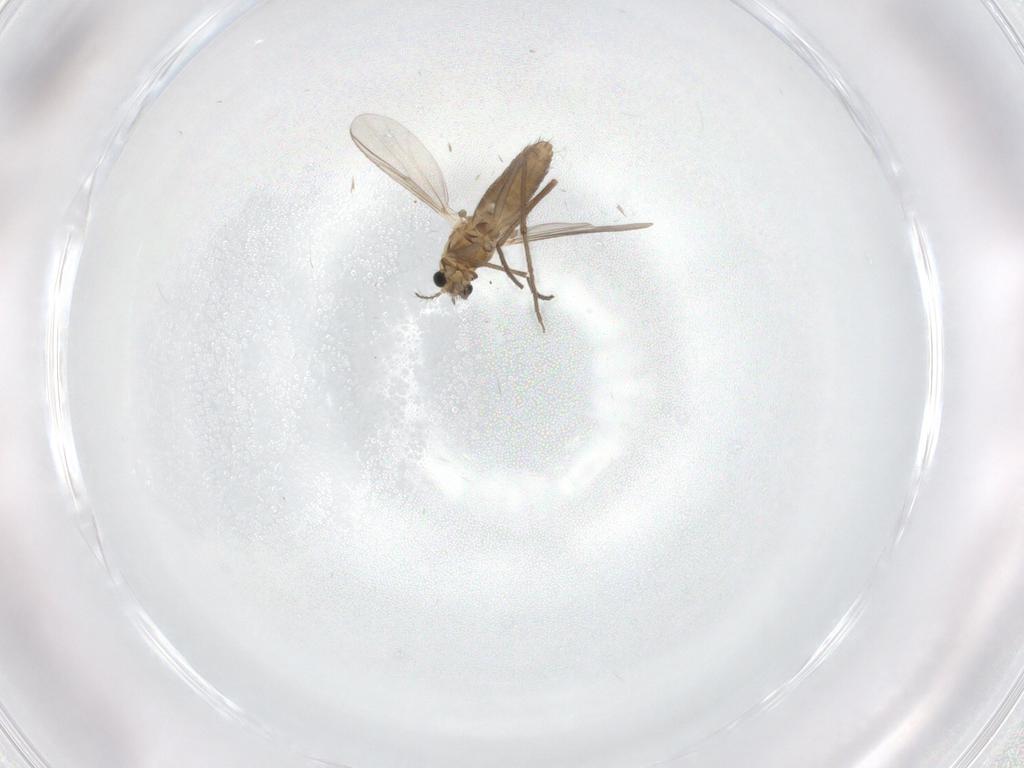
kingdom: Animalia
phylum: Arthropoda
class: Insecta
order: Diptera
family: Chironomidae
